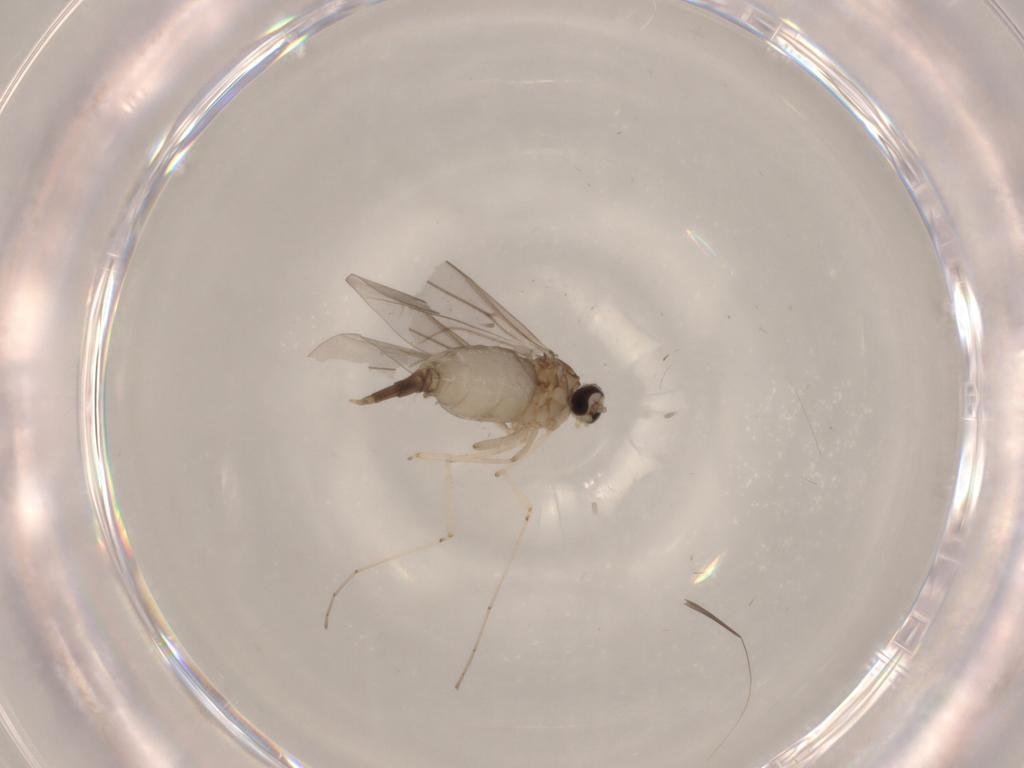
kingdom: Animalia
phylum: Arthropoda
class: Insecta
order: Diptera
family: Cecidomyiidae
